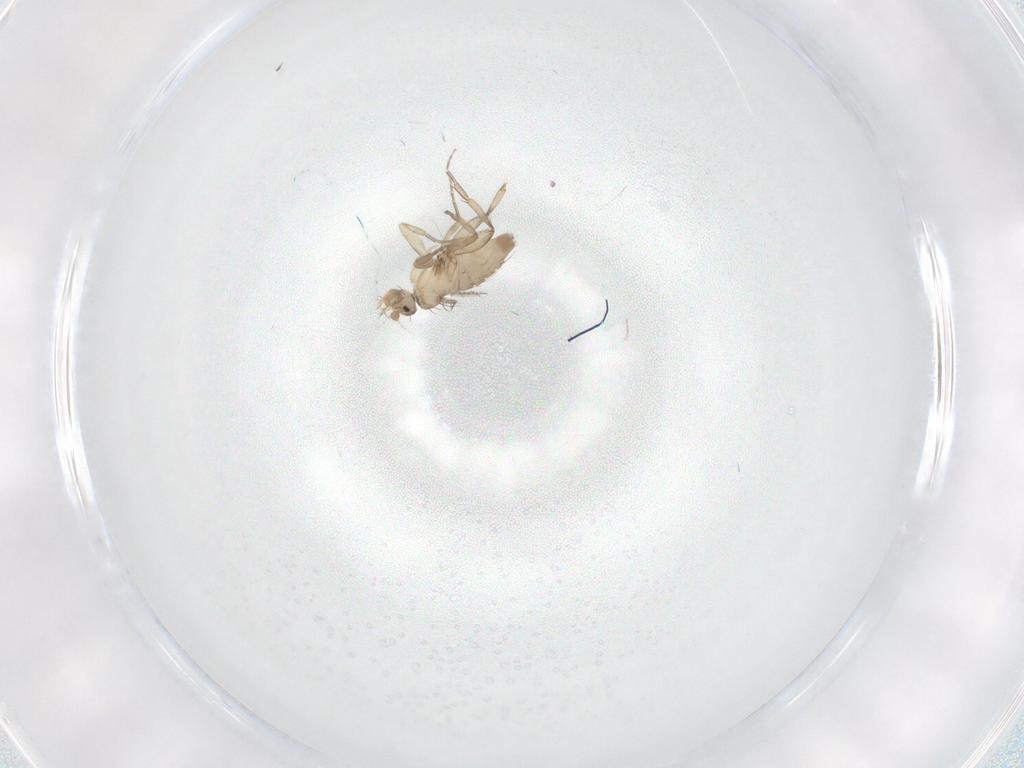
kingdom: Animalia
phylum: Arthropoda
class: Insecta
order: Diptera
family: Phoridae
